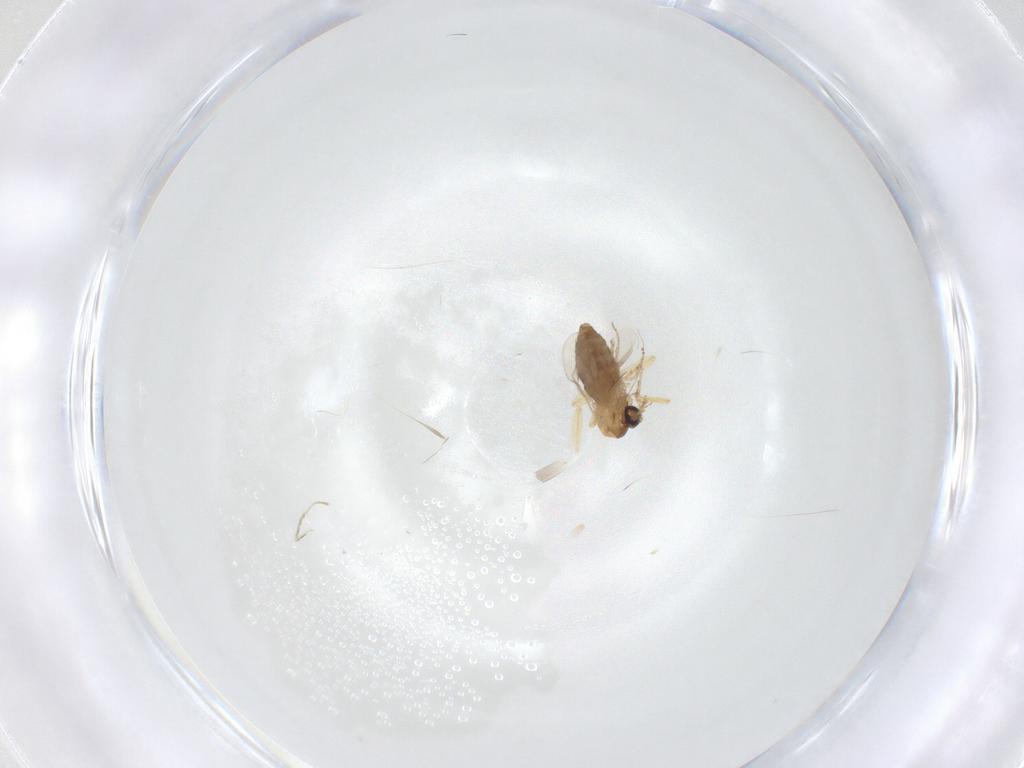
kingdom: Animalia
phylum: Arthropoda
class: Insecta
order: Diptera
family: Ceratopogonidae
